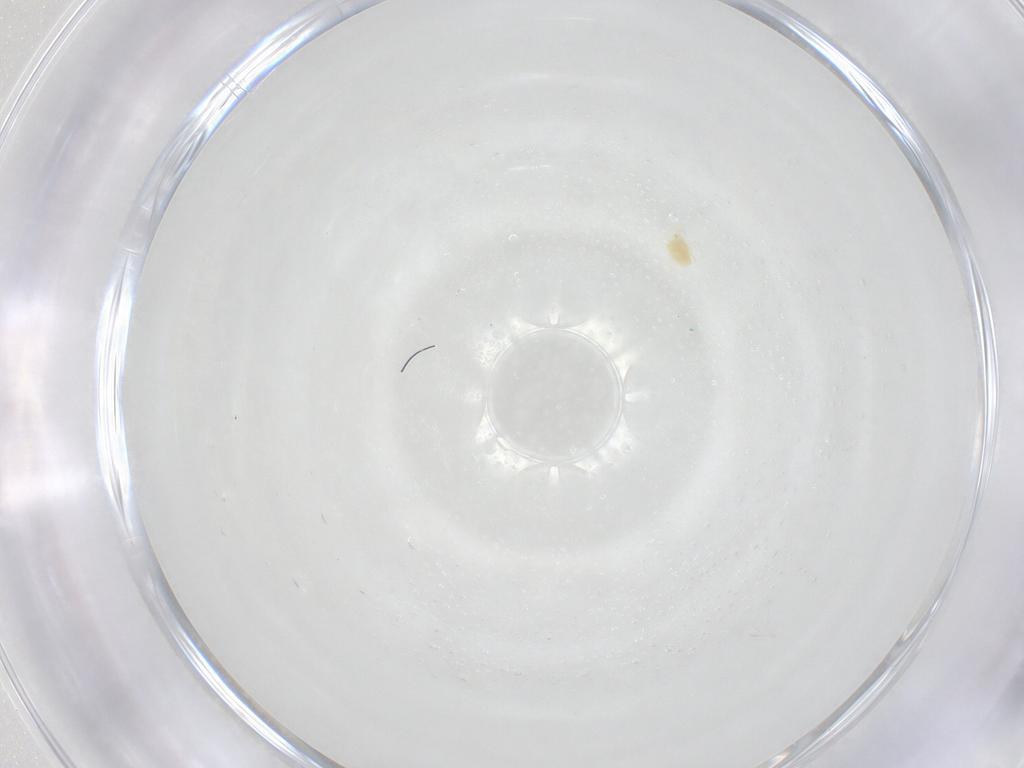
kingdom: Animalia
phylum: Arthropoda
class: Arachnida
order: Trombidiformes
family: Tetranychidae
